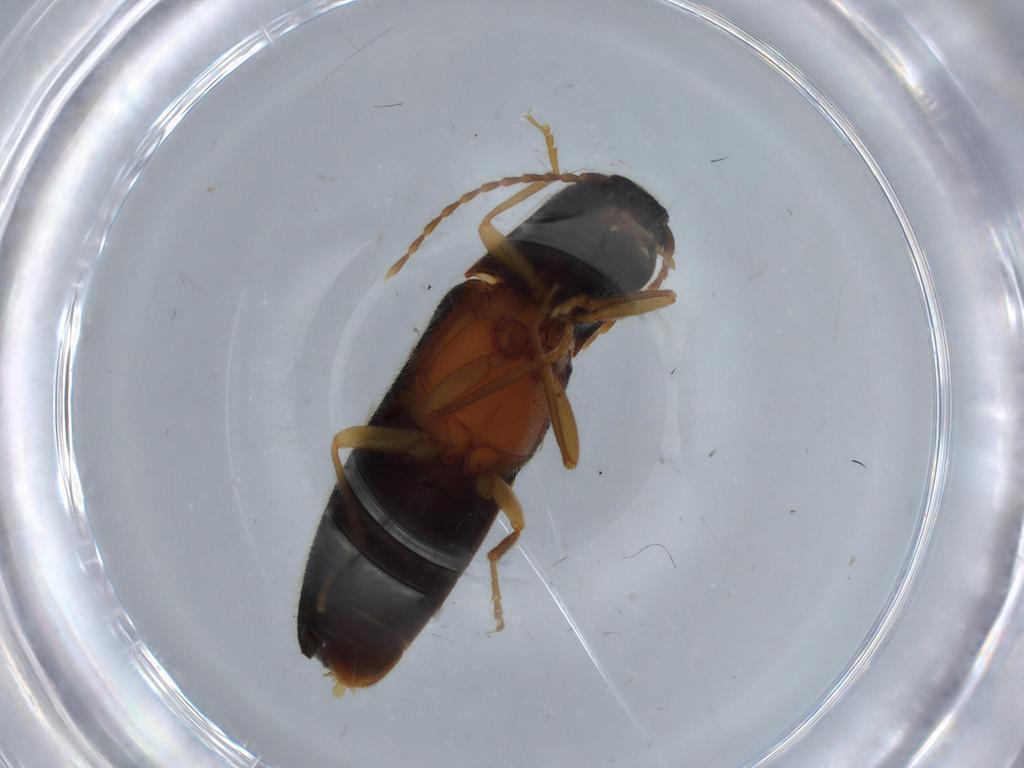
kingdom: Animalia
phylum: Arthropoda
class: Insecta
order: Coleoptera
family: Elateridae
